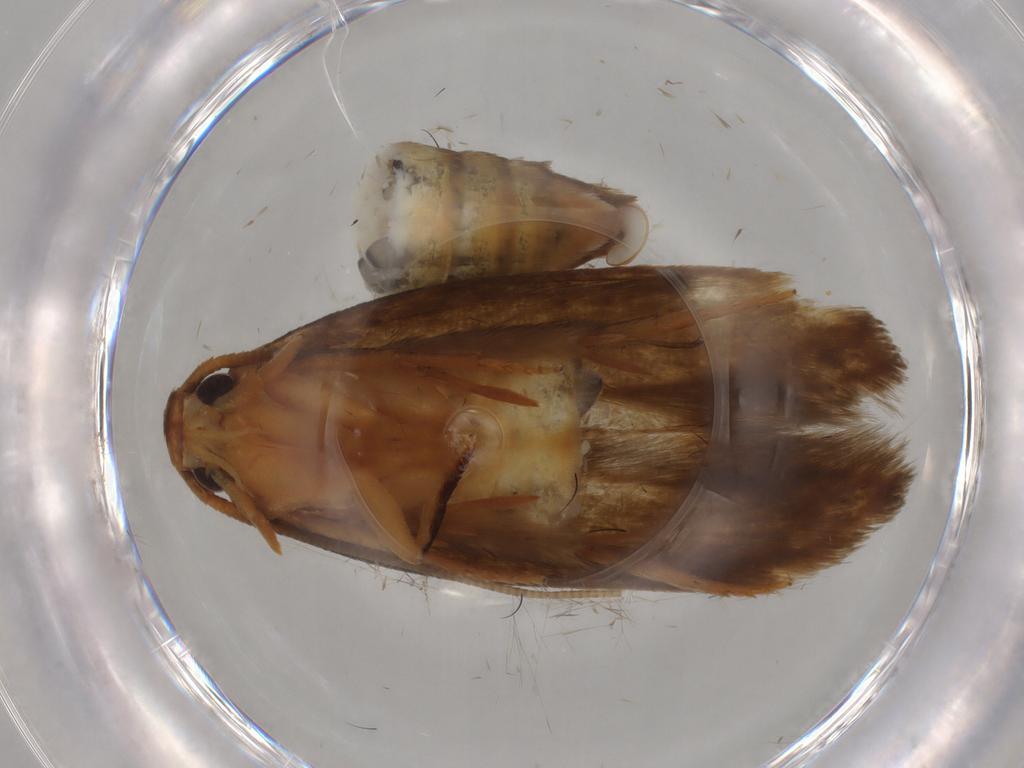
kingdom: Animalia
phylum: Arthropoda
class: Insecta
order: Lepidoptera
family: Tineidae
